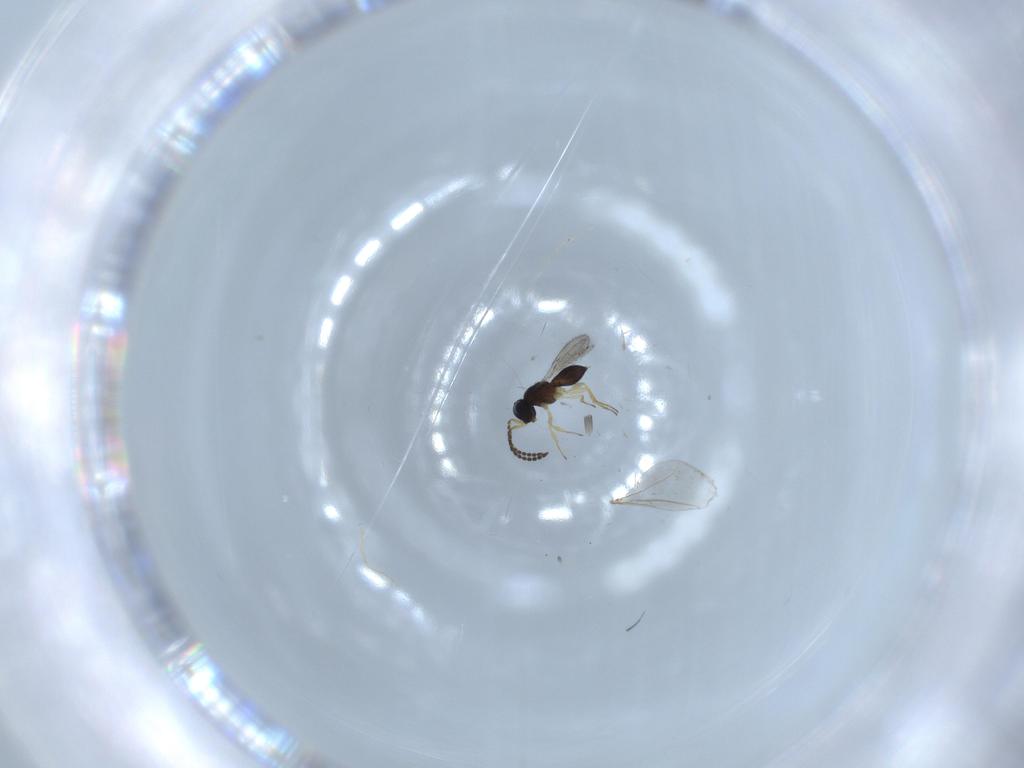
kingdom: Animalia
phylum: Arthropoda
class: Insecta
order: Hymenoptera
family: Scelionidae
